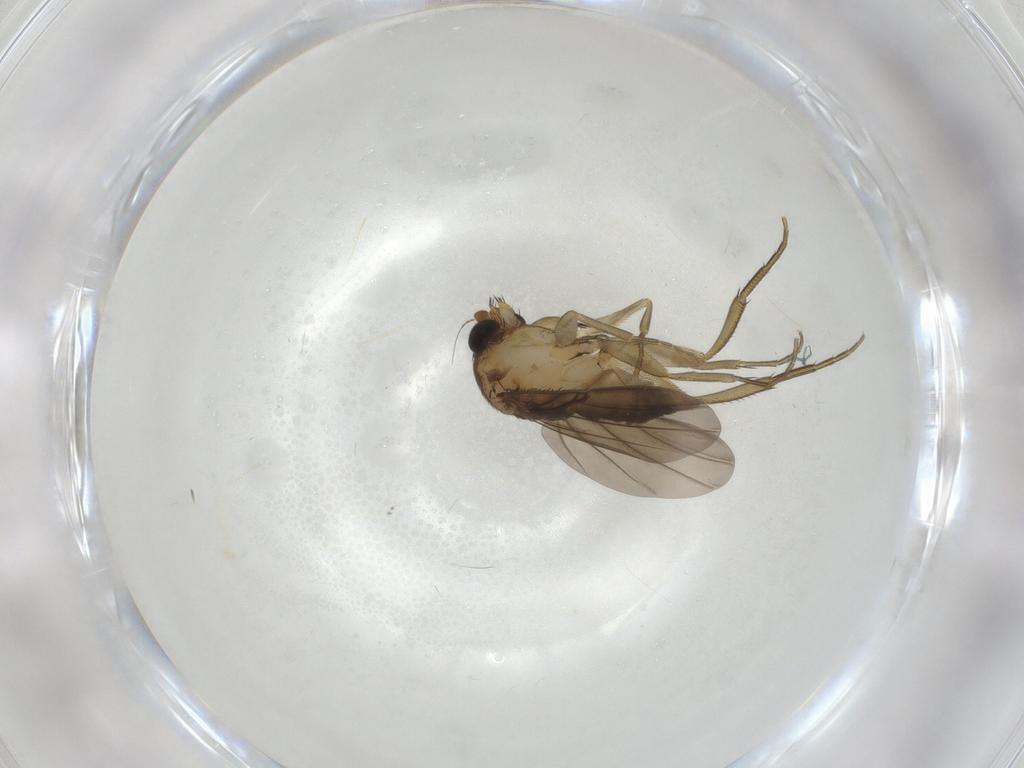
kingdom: Animalia
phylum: Arthropoda
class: Insecta
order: Diptera
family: Phoridae
